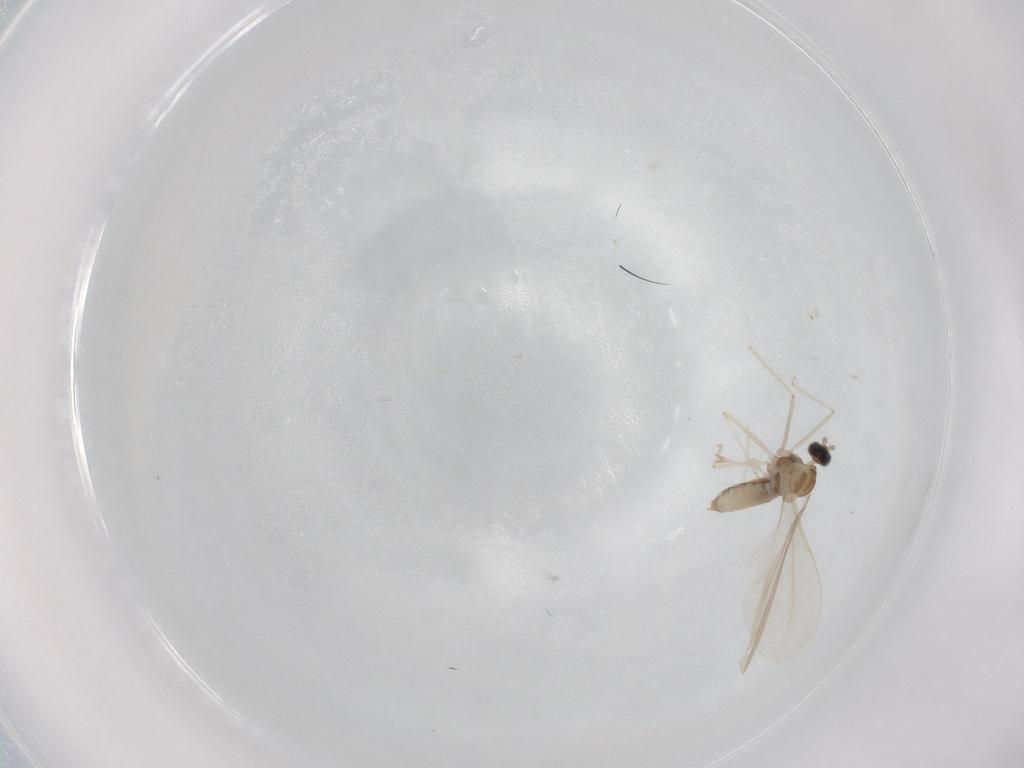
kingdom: Animalia
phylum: Arthropoda
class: Insecta
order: Diptera
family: Cecidomyiidae
